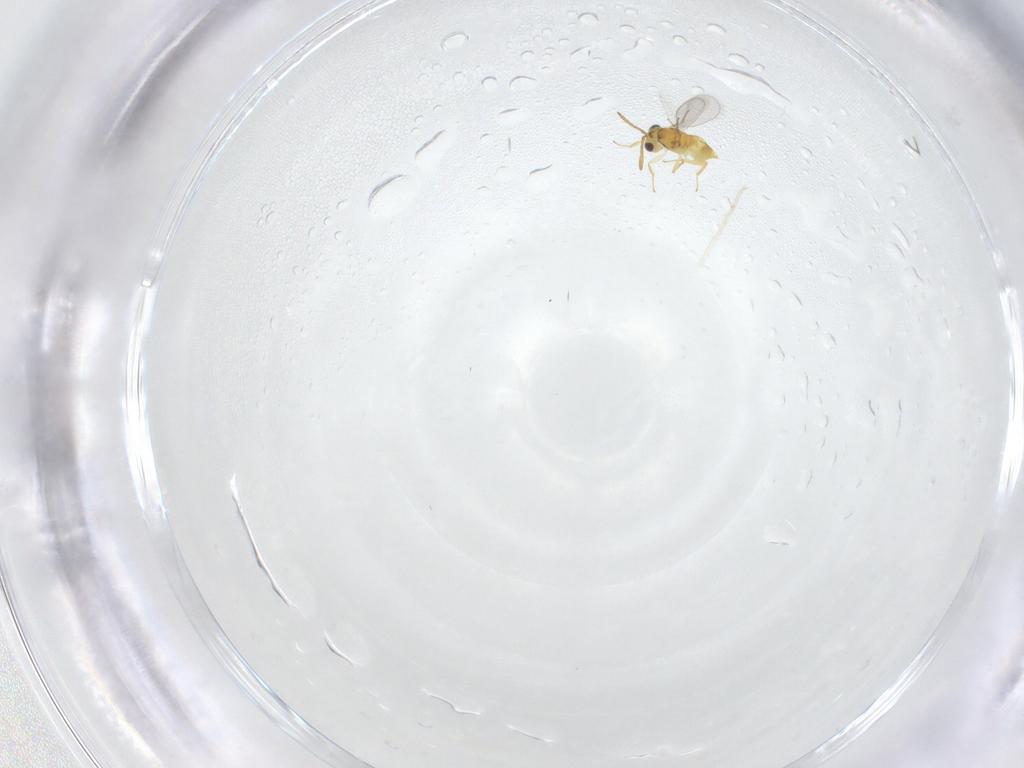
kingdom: Animalia
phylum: Arthropoda
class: Insecta
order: Hymenoptera
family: Aphelinidae
